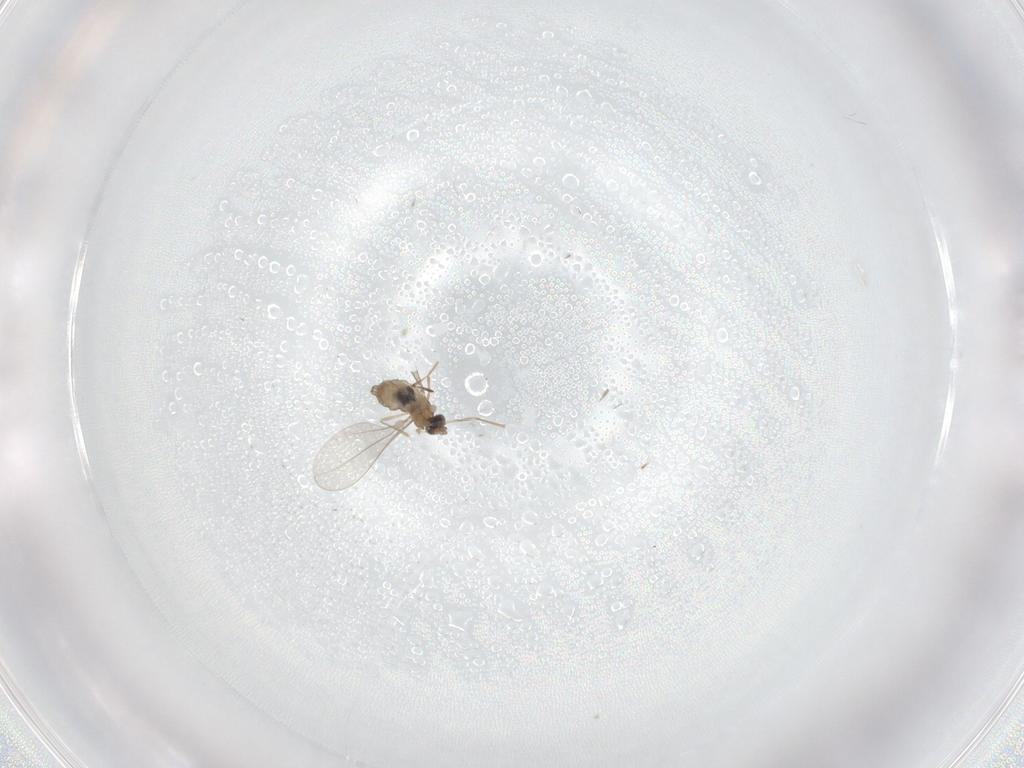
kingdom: Animalia
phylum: Arthropoda
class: Insecta
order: Diptera
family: Cecidomyiidae
